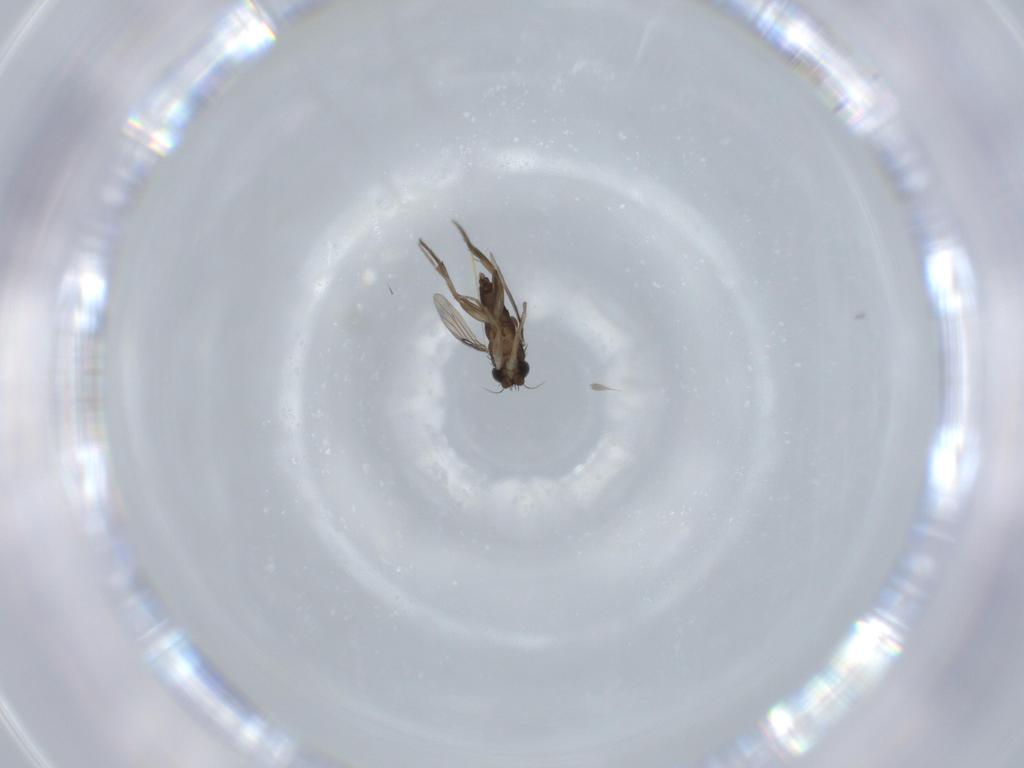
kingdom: Animalia
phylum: Arthropoda
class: Insecta
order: Diptera
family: Phoridae
